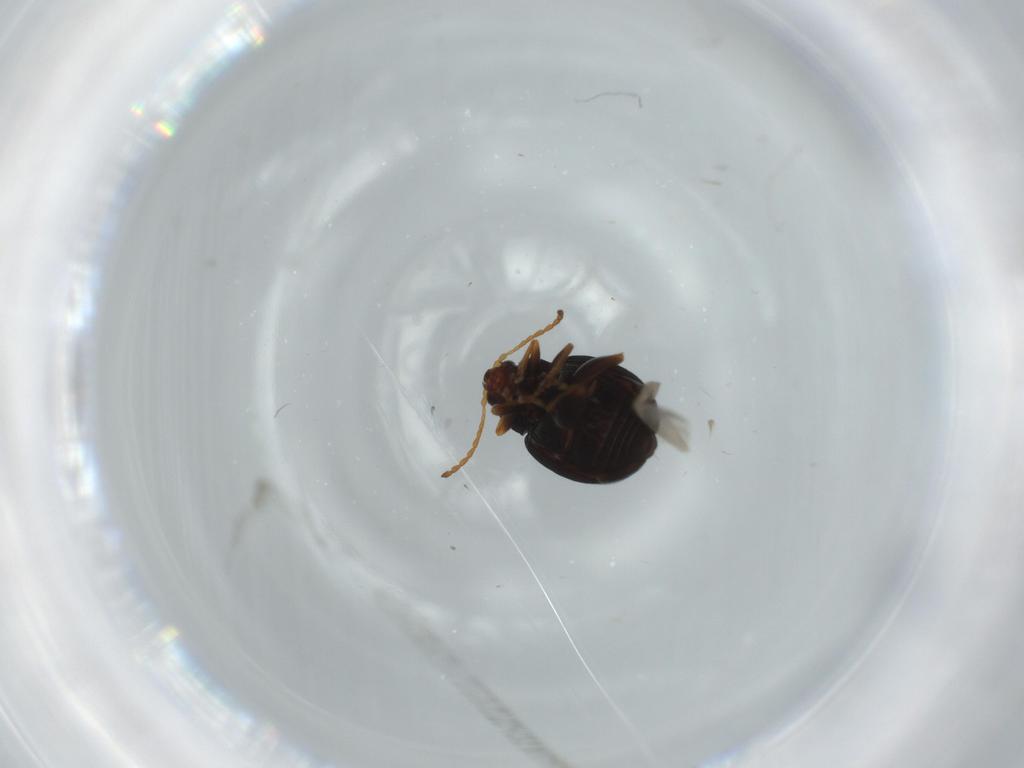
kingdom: Animalia
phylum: Arthropoda
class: Insecta
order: Coleoptera
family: Chrysomelidae
